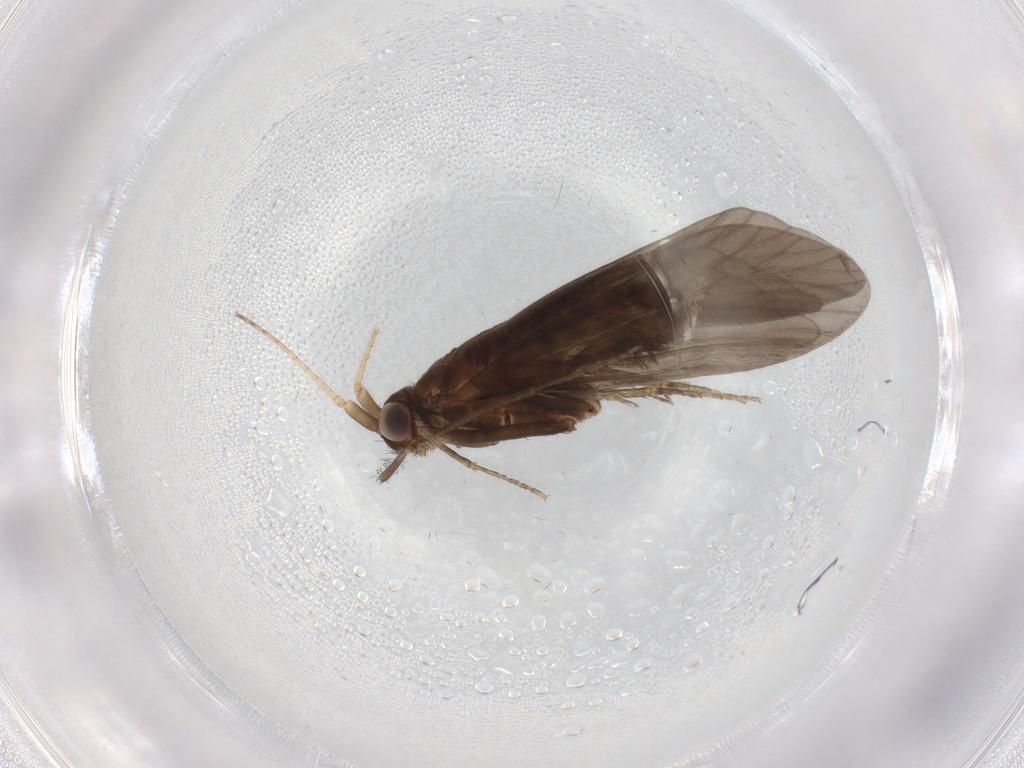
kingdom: Animalia
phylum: Arthropoda
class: Insecta
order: Trichoptera
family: Helicopsychidae
